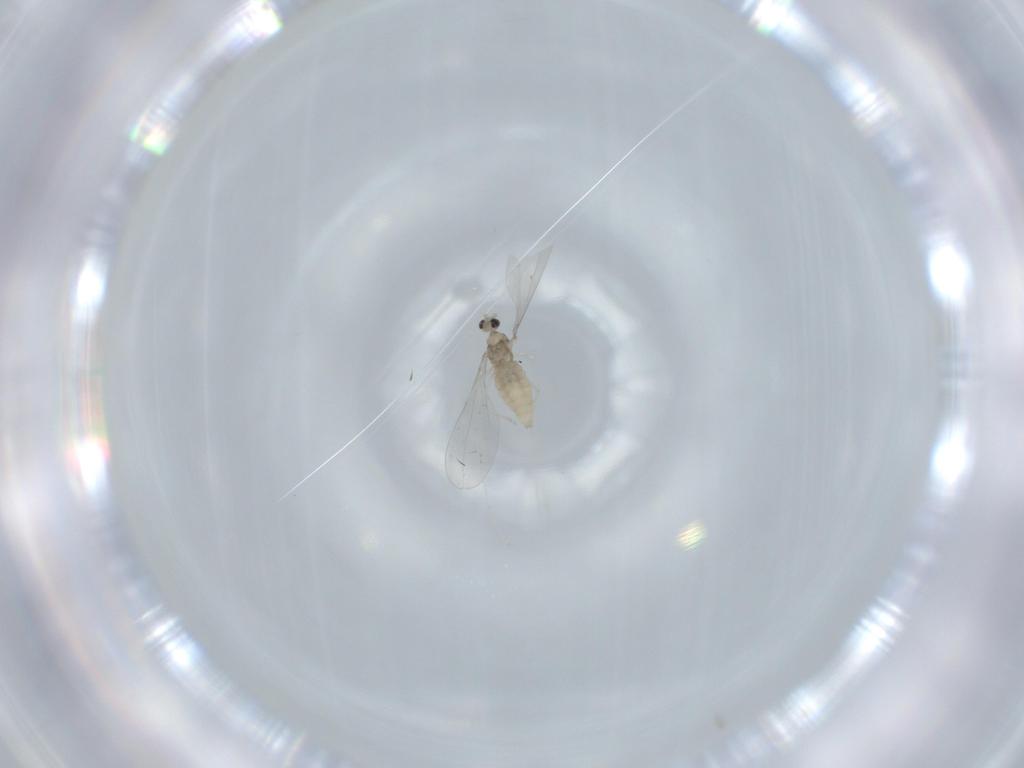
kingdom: Animalia
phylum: Arthropoda
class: Insecta
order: Diptera
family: Cecidomyiidae
